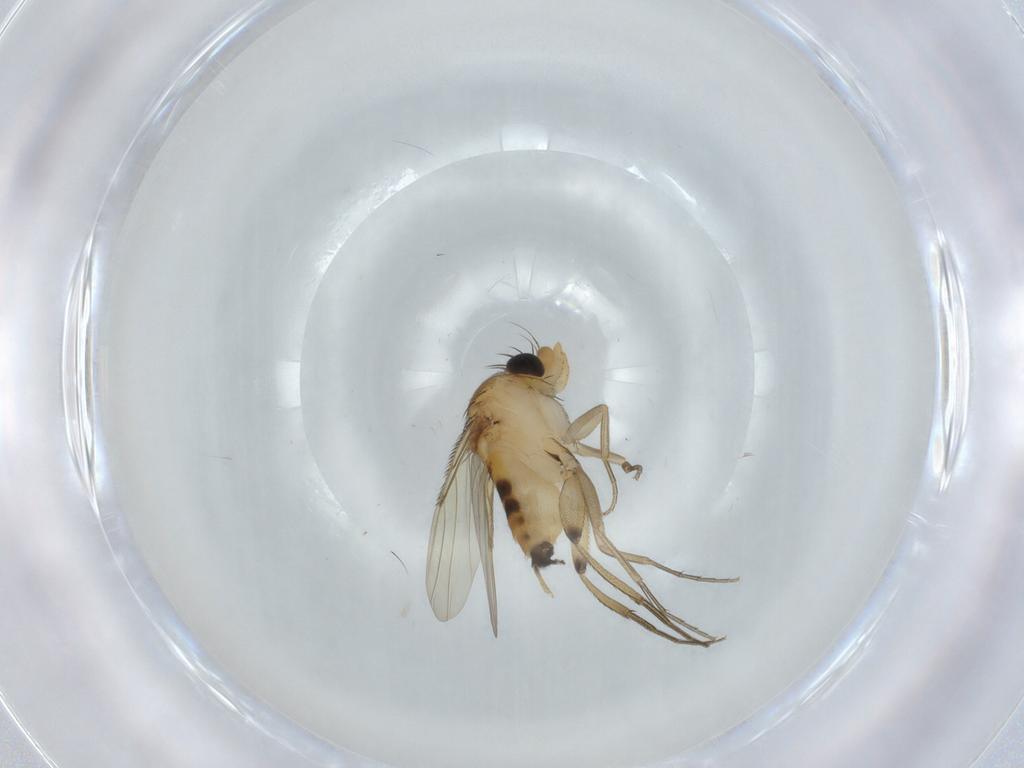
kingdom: Animalia
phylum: Arthropoda
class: Insecta
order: Diptera
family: Phoridae
